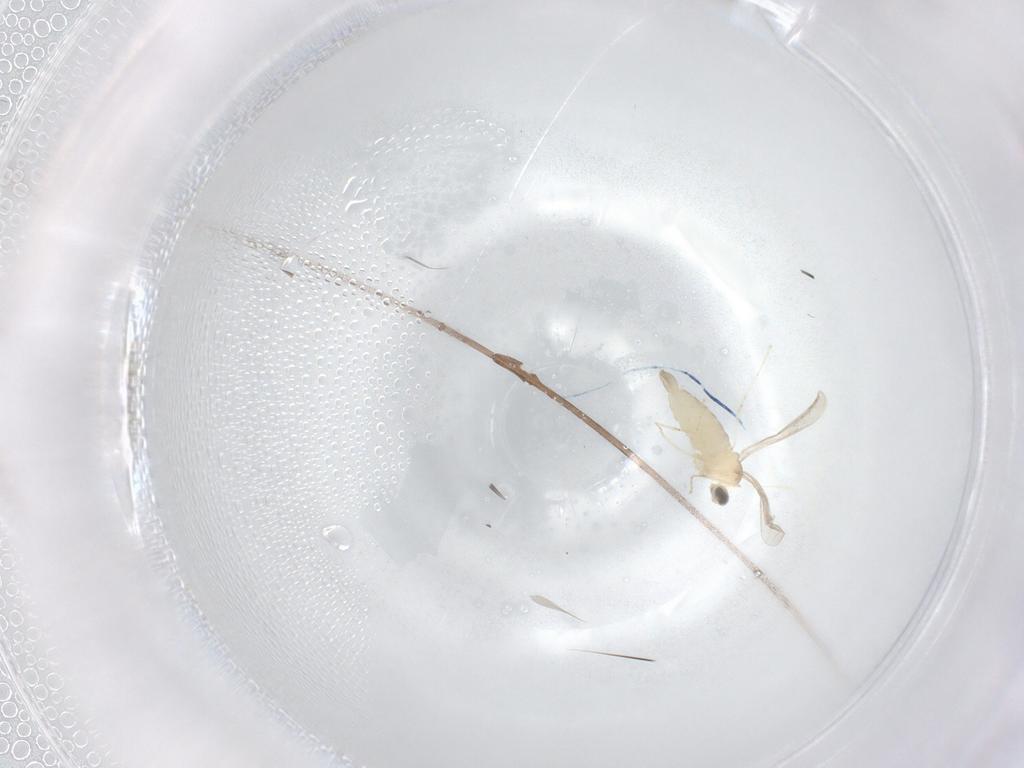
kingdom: Animalia
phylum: Arthropoda
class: Insecta
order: Diptera
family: Cecidomyiidae
